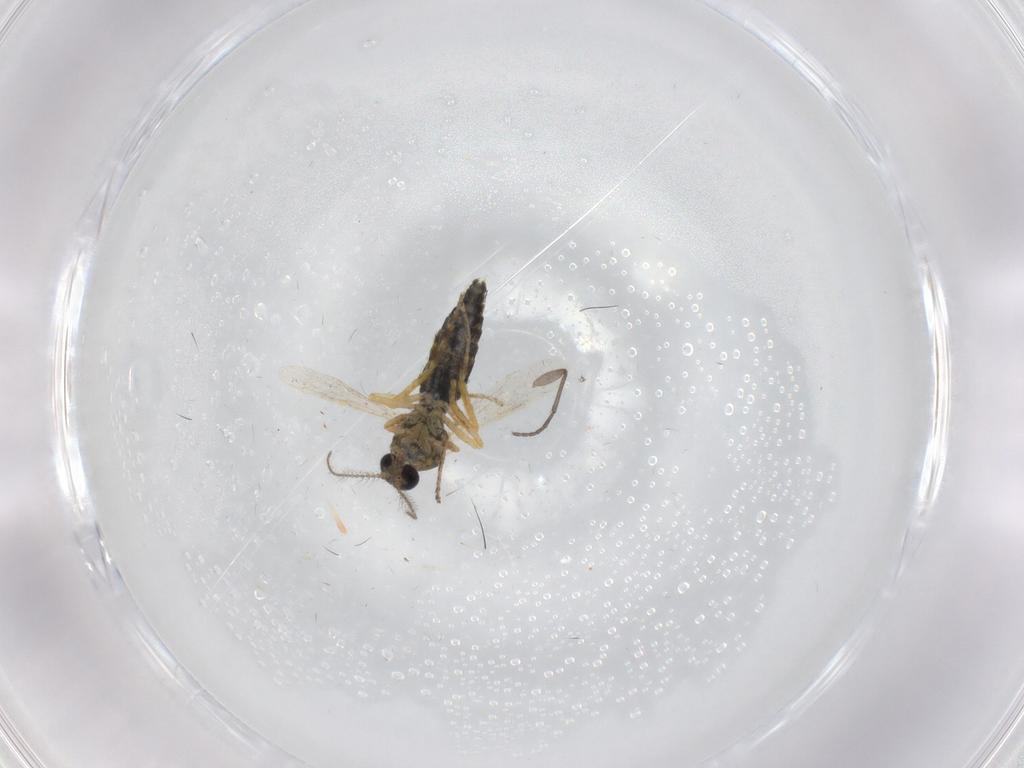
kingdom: Animalia
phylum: Arthropoda
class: Insecta
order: Diptera
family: Ceratopogonidae
